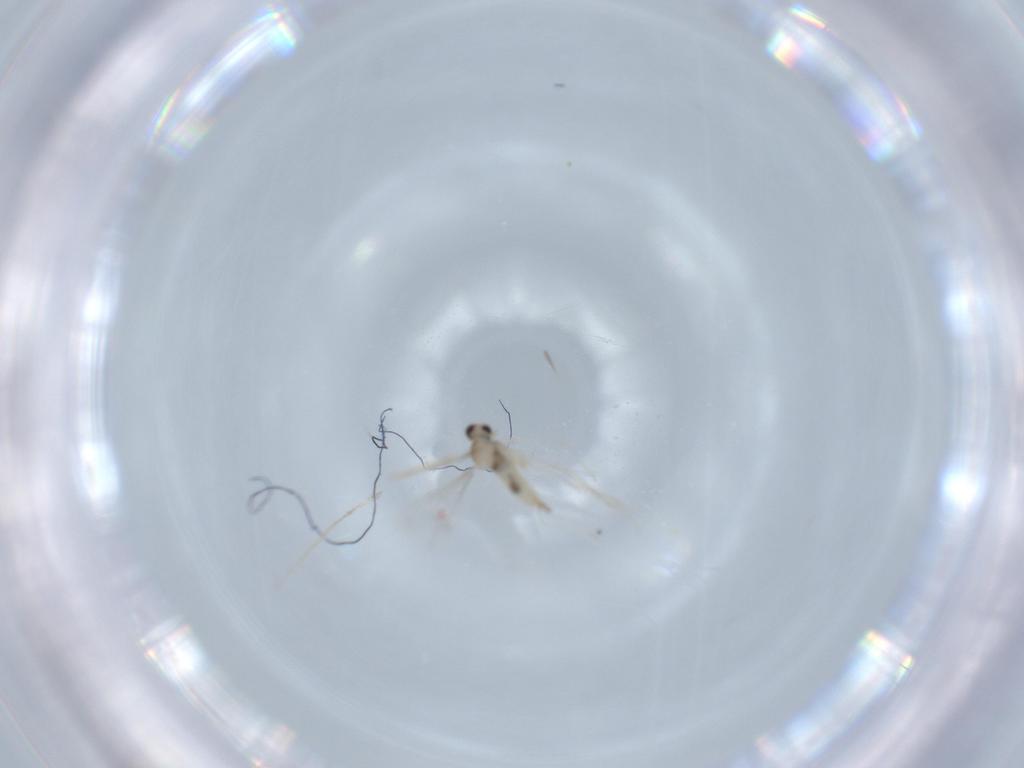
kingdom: Animalia
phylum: Arthropoda
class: Insecta
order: Diptera
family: Cecidomyiidae
